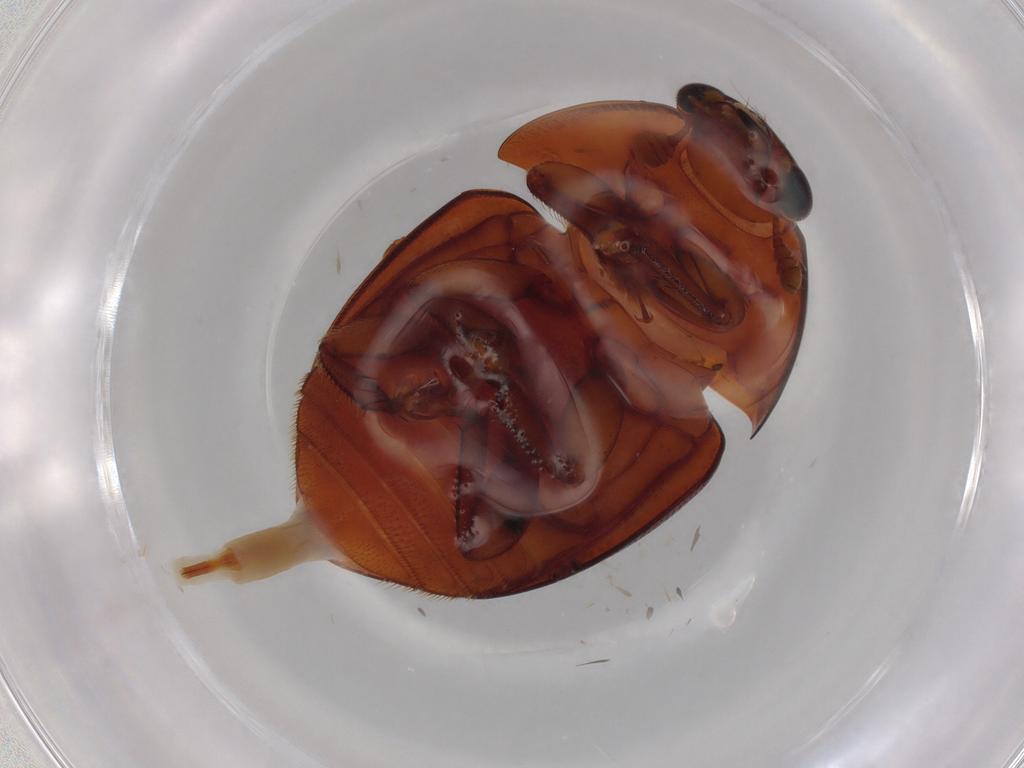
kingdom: Animalia
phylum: Arthropoda
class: Insecta
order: Coleoptera
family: Nitidulidae
